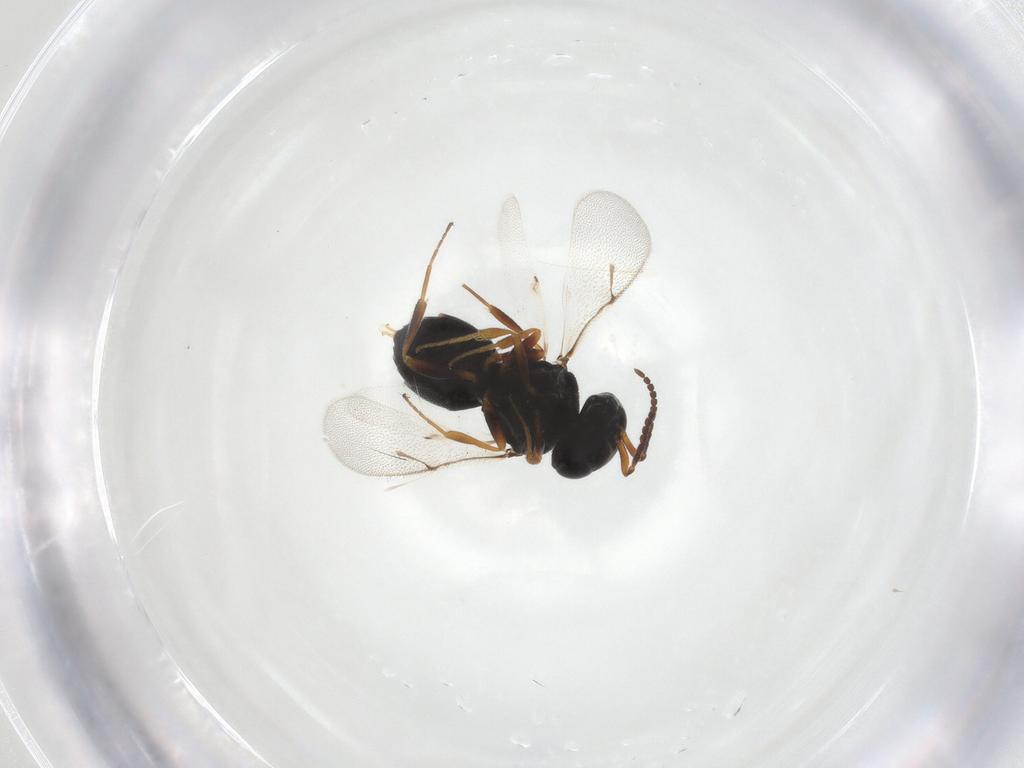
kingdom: Animalia
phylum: Arthropoda
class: Insecta
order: Hymenoptera
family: Scelionidae
